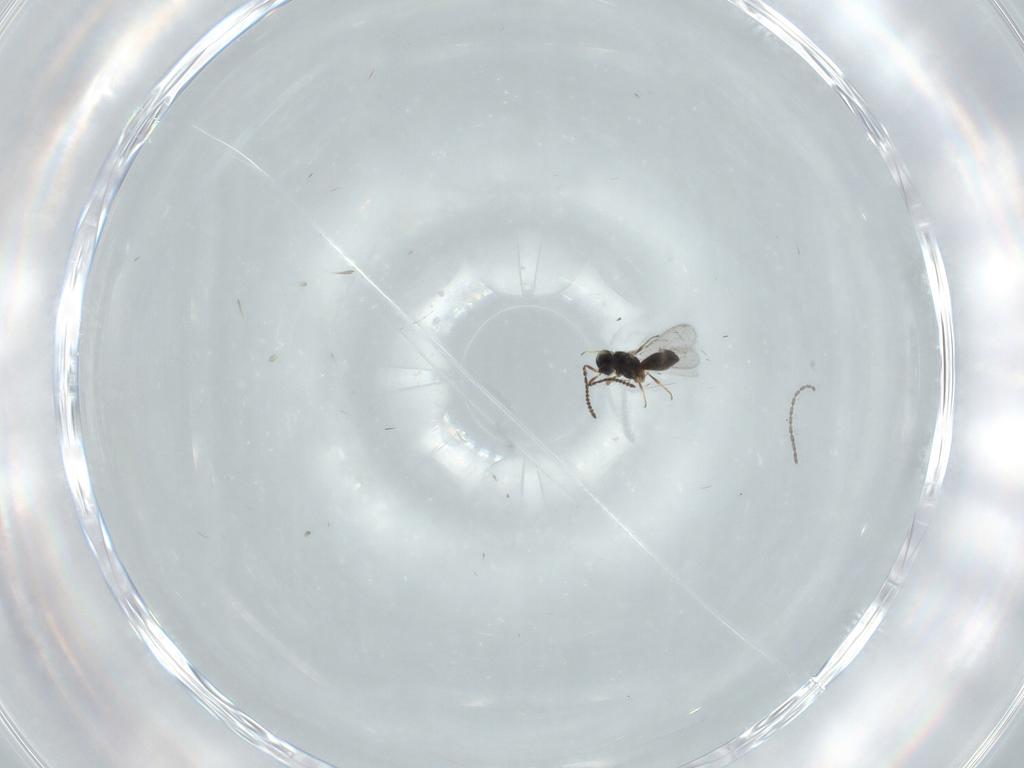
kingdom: Animalia
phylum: Arthropoda
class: Insecta
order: Hymenoptera
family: Scelionidae
